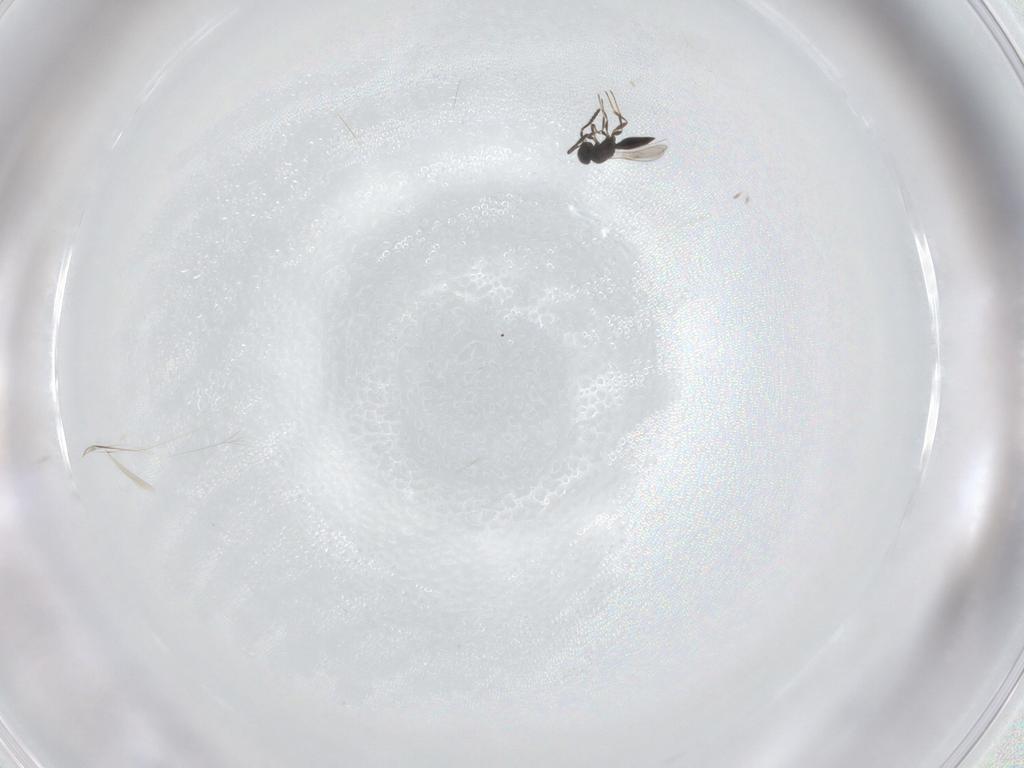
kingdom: Animalia
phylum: Arthropoda
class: Insecta
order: Hymenoptera
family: Scelionidae
